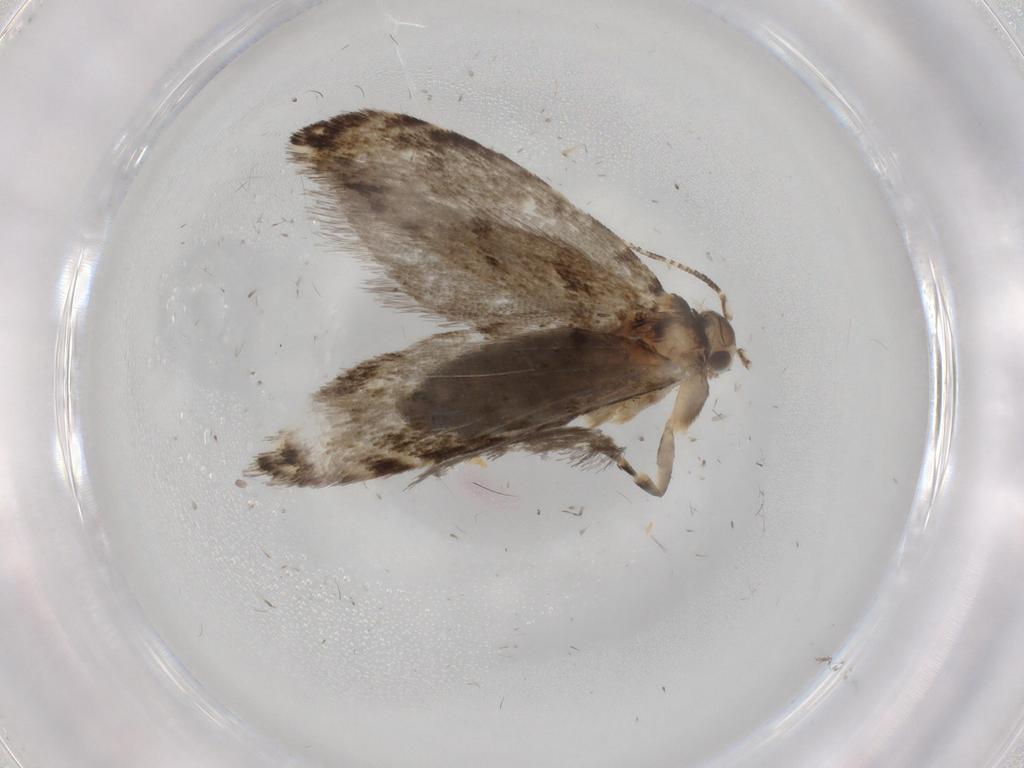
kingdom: Animalia
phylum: Arthropoda
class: Insecta
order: Lepidoptera
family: Tineidae
